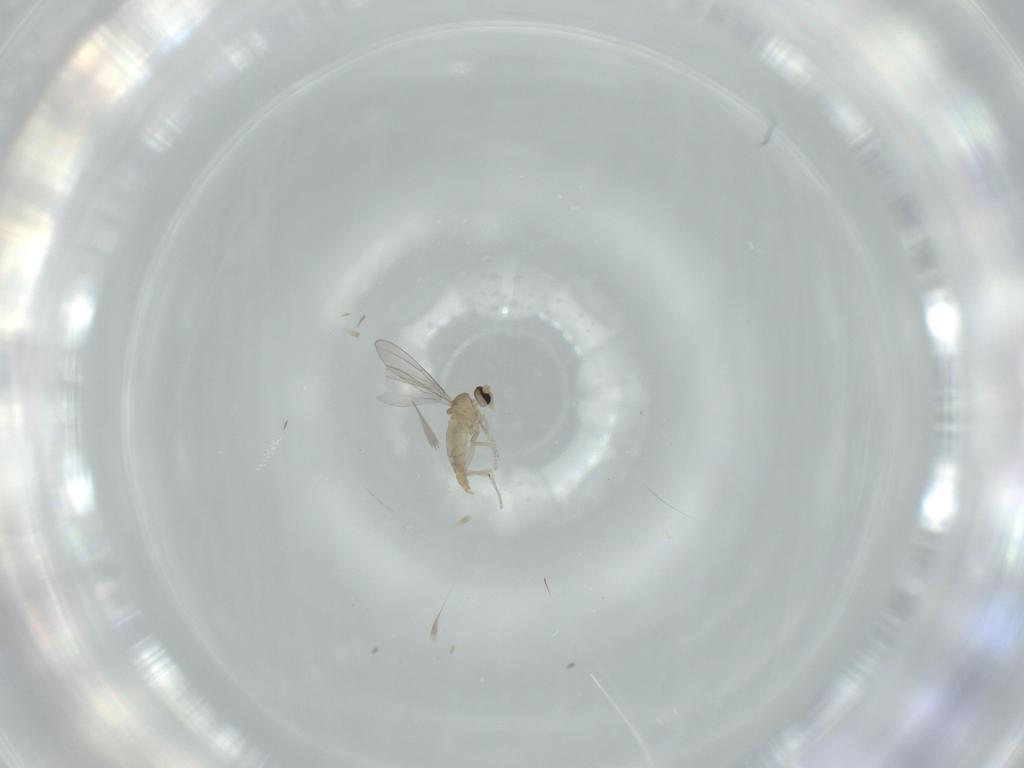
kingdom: Animalia
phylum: Arthropoda
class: Insecta
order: Diptera
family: Cecidomyiidae
